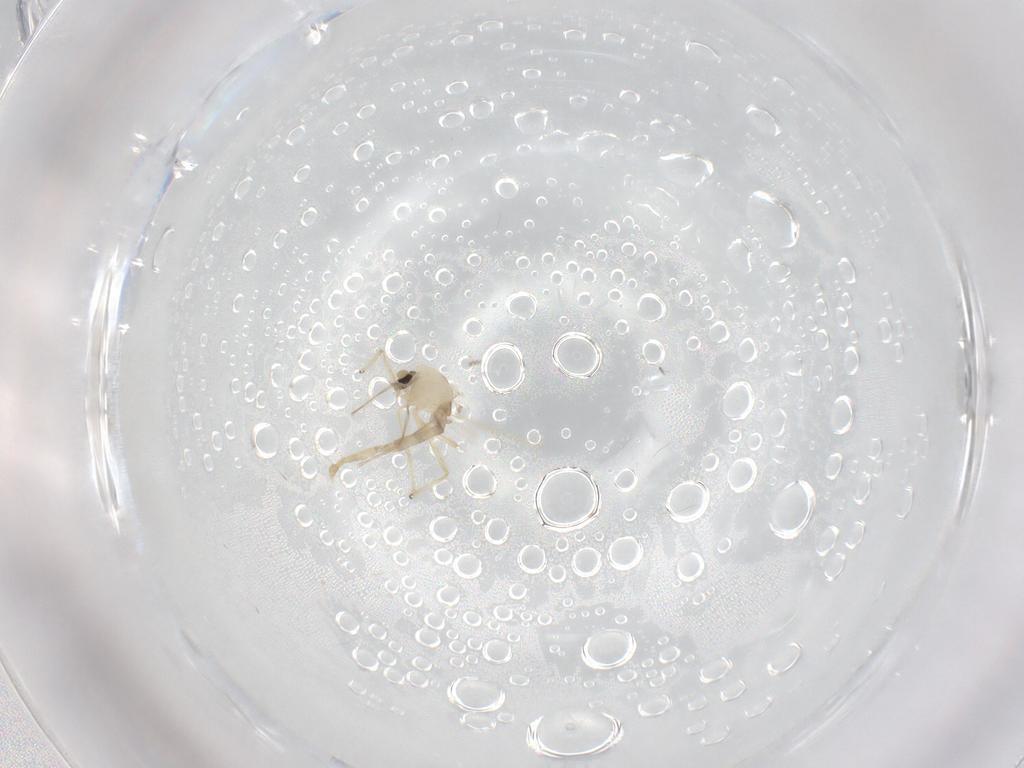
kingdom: Animalia
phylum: Arthropoda
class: Insecta
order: Diptera
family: Chironomidae
